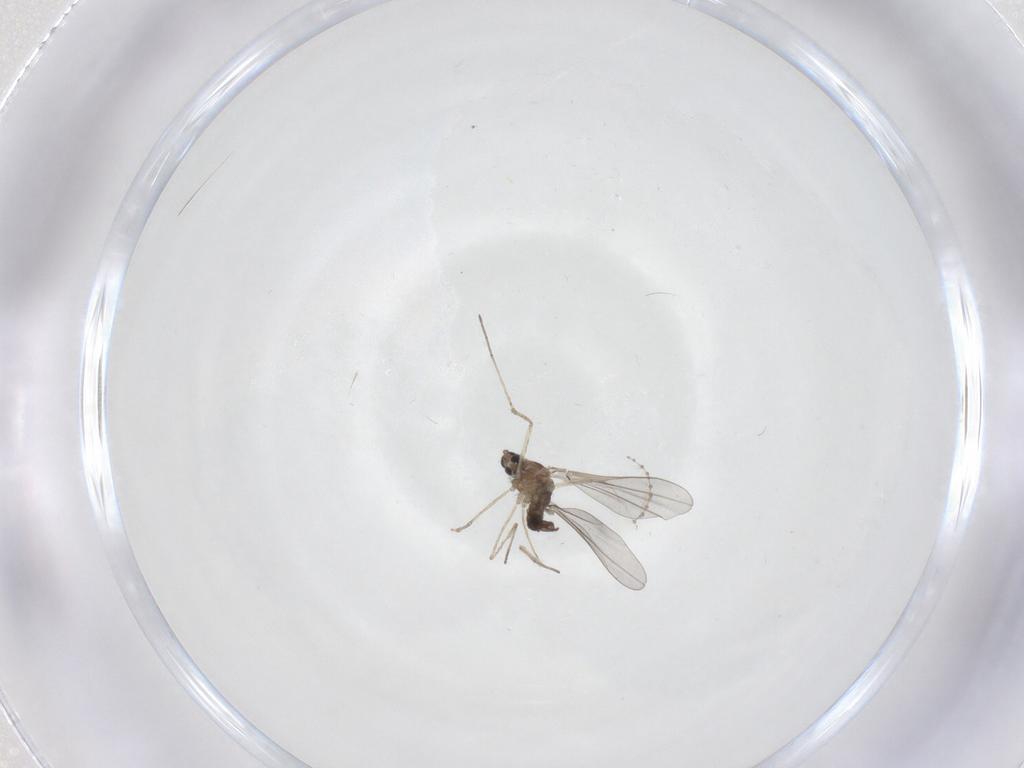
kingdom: Animalia
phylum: Arthropoda
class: Insecta
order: Diptera
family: Cecidomyiidae
